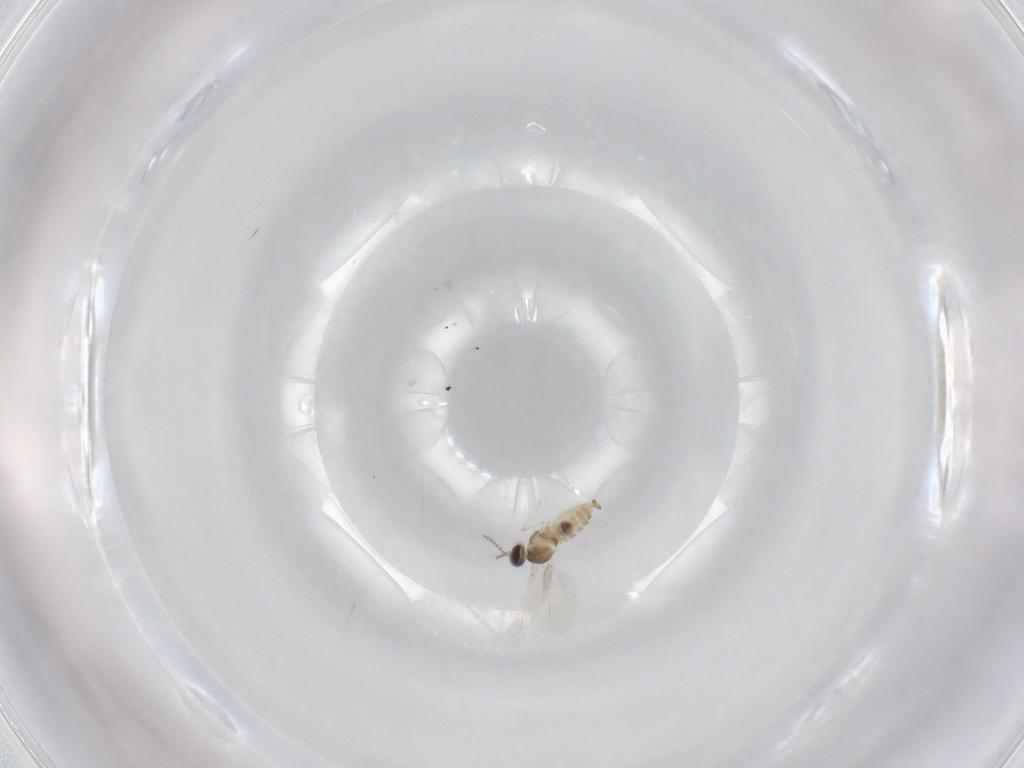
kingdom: Animalia
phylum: Arthropoda
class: Insecta
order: Diptera
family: Cecidomyiidae
